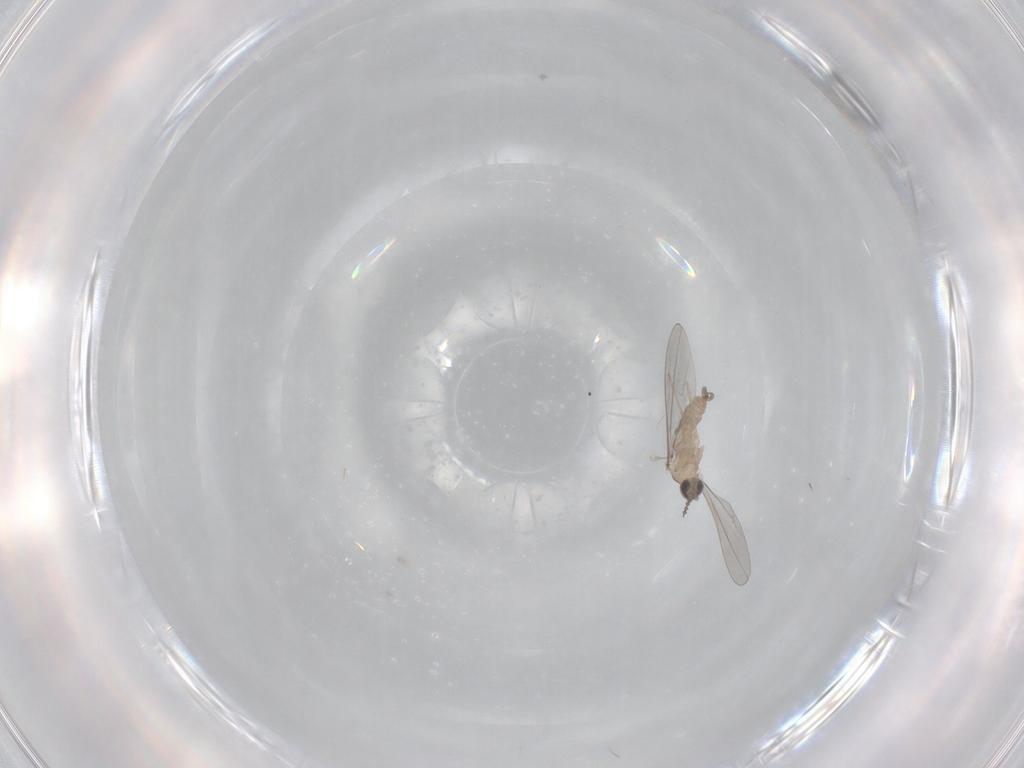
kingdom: Animalia
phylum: Arthropoda
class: Insecta
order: Diptera
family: Cecidomyiidae
